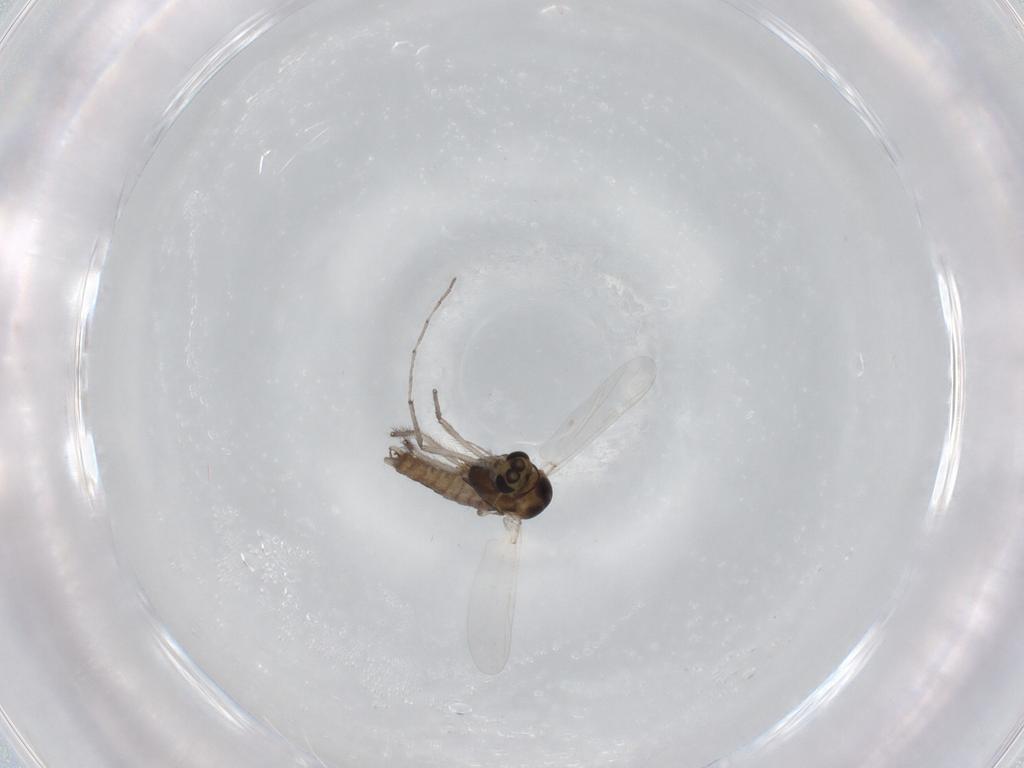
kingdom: Animalia
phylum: Arthropoda
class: Insecta
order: Diptera
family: Chironomidae
